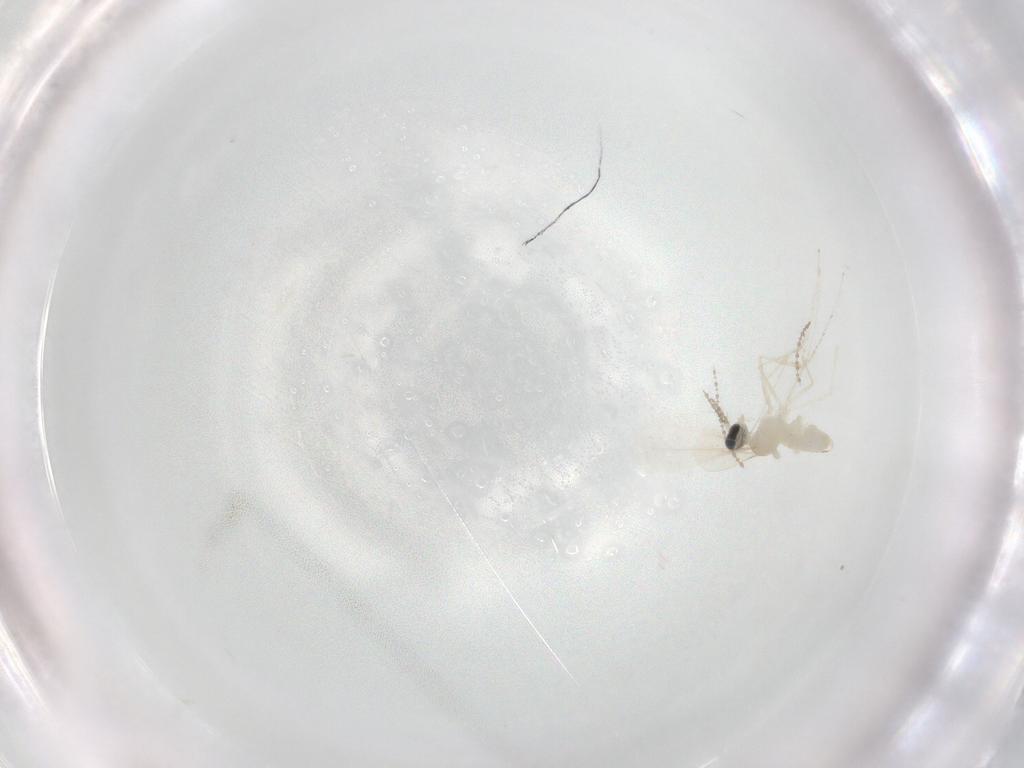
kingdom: Animalia
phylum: Arthropoda
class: Insecta
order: Diptera
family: Cecidomyiidae
